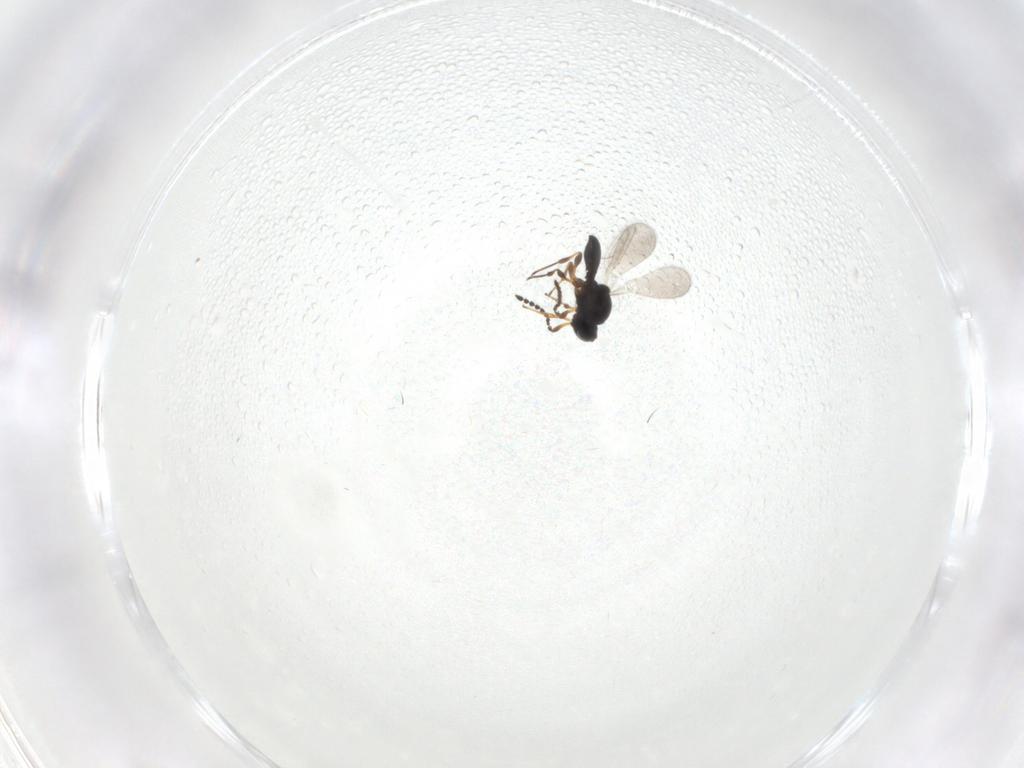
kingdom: Animalia
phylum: Arthropoda
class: Insecta
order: Hymenoptera
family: Platygastridae
